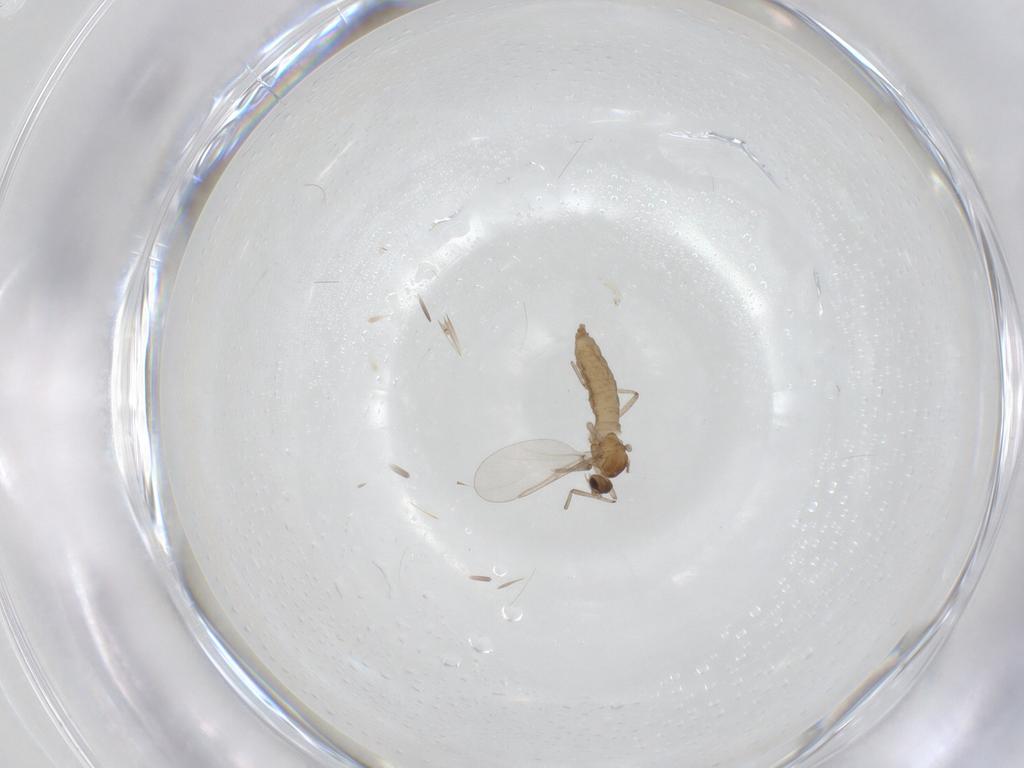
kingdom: Animalia
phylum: Arthropoda
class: Insecta
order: Diptera
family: Cecidomyiidae
